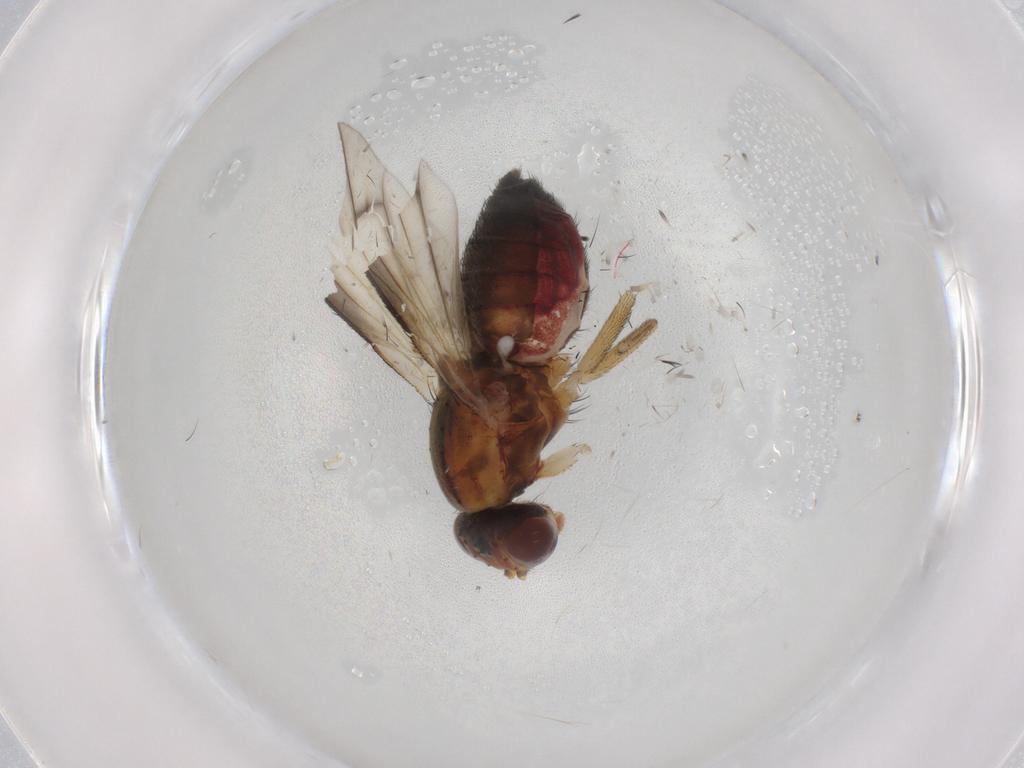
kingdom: Animalia
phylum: Arthropoda
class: Insecta
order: Diptera
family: Heleomyzidae
